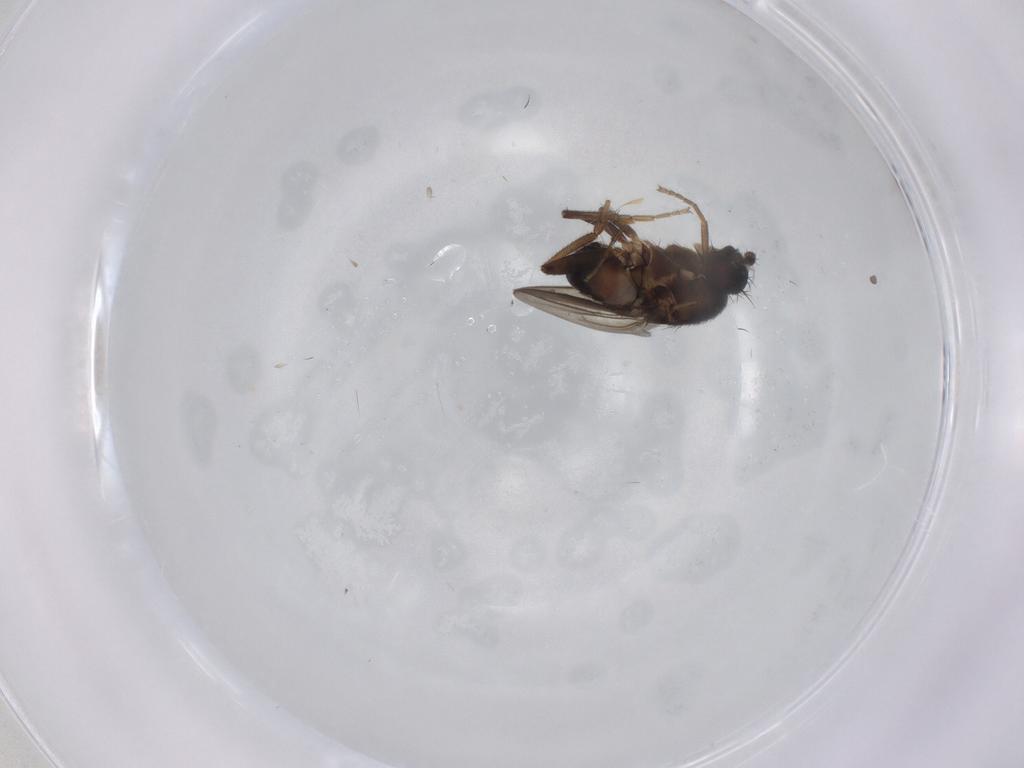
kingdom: Animalia
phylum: Arthropoda
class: Insecta
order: Diptera
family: Sphaeroceridae
